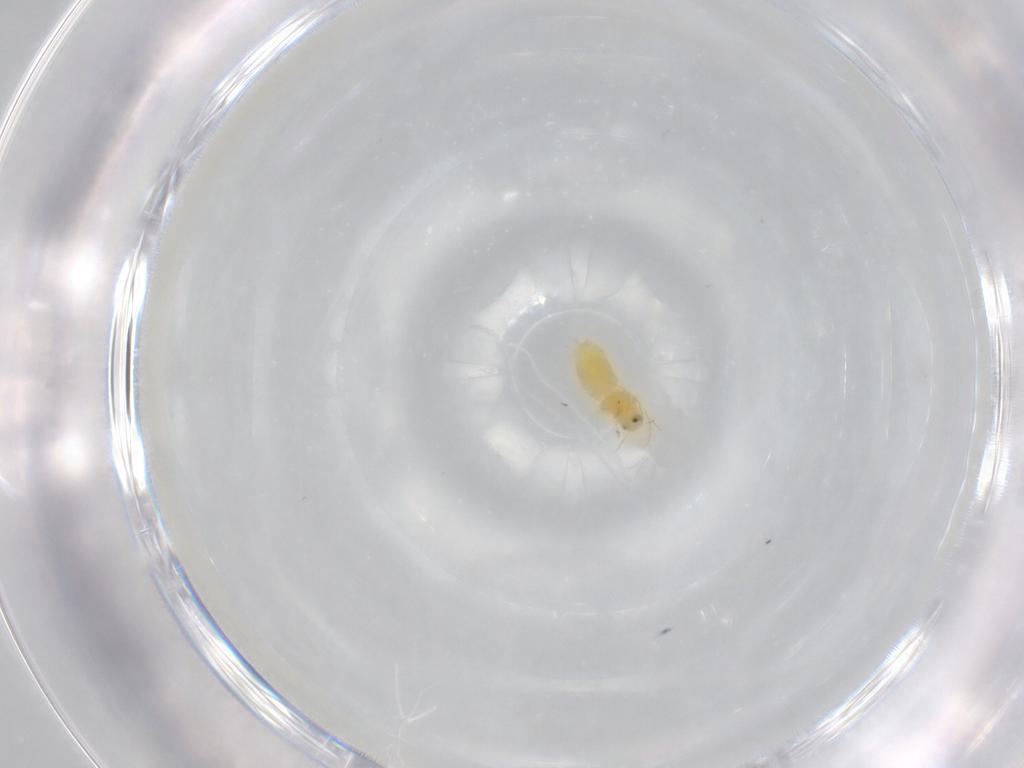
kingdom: Animalia
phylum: Arthropoda
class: Insecta
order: Hemiptera
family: Aleyrodidae
